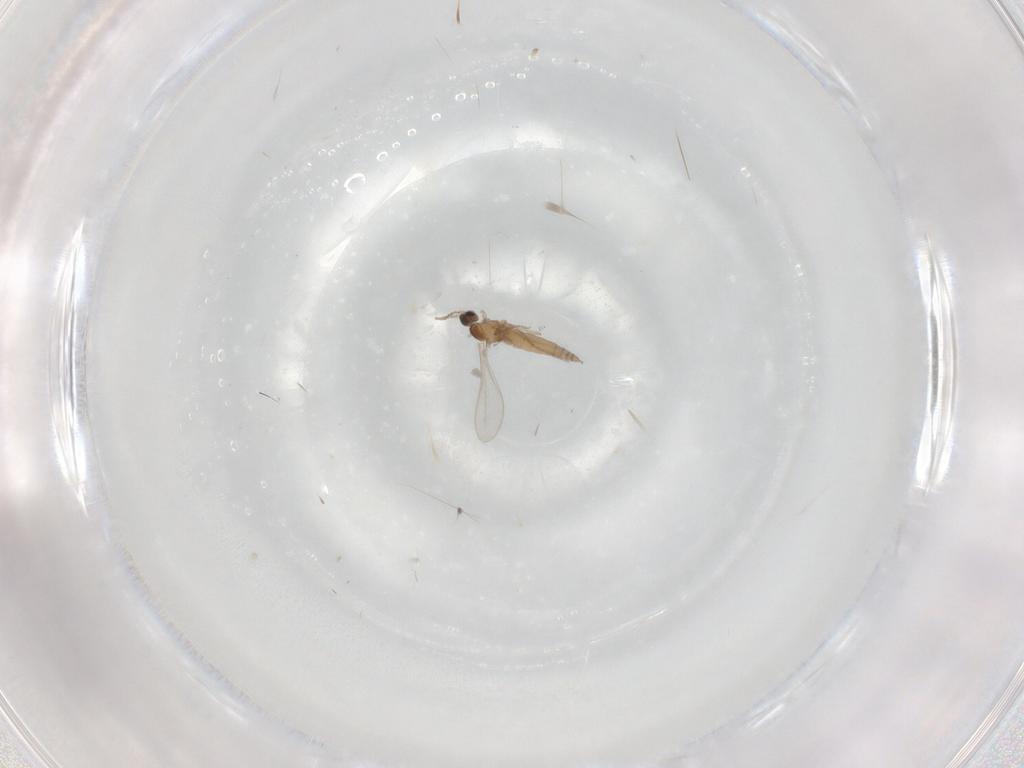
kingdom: Animalia
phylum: Arthropoda
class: Insecta
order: Diptera
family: Cecidomyiidae
